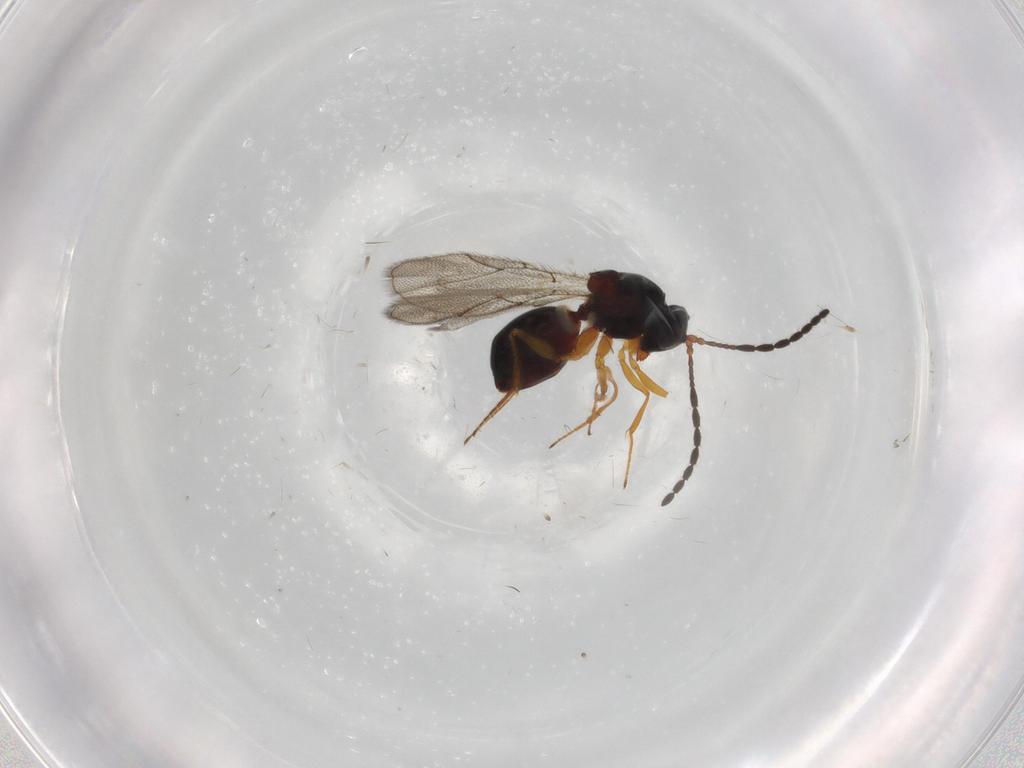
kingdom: Animalia
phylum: Arthropoda
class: Insecta
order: Hymenoptera
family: Figitidae
